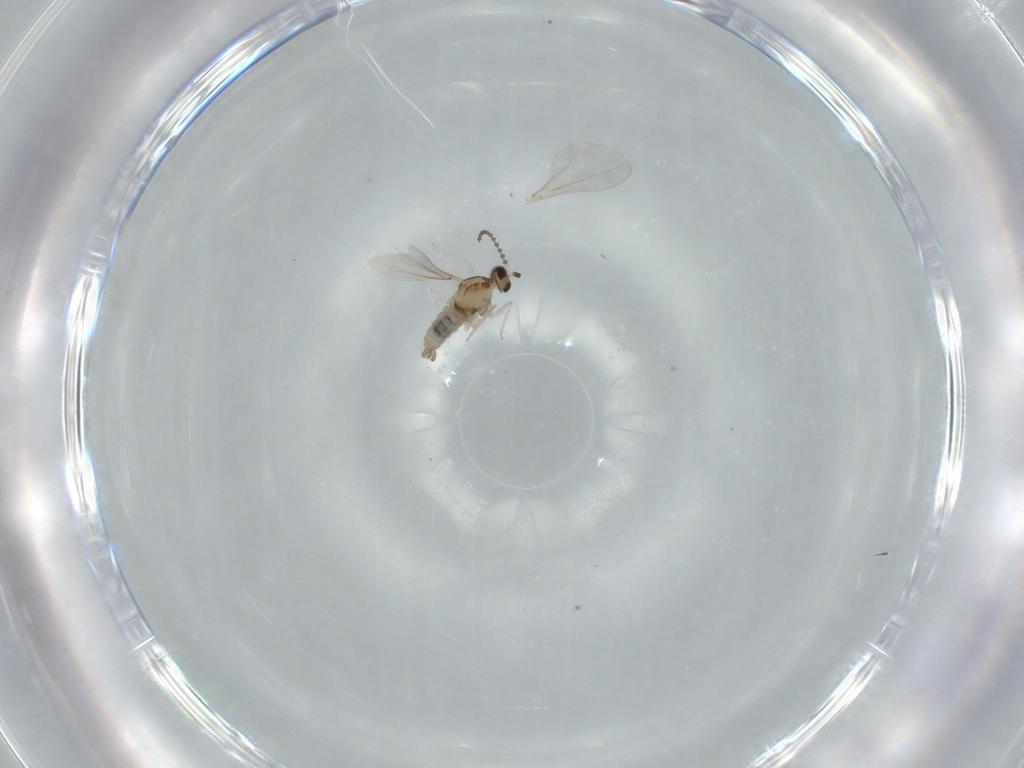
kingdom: Animalia
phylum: Arthropoda
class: Insecta
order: Diptera
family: Cecidomyiidae
